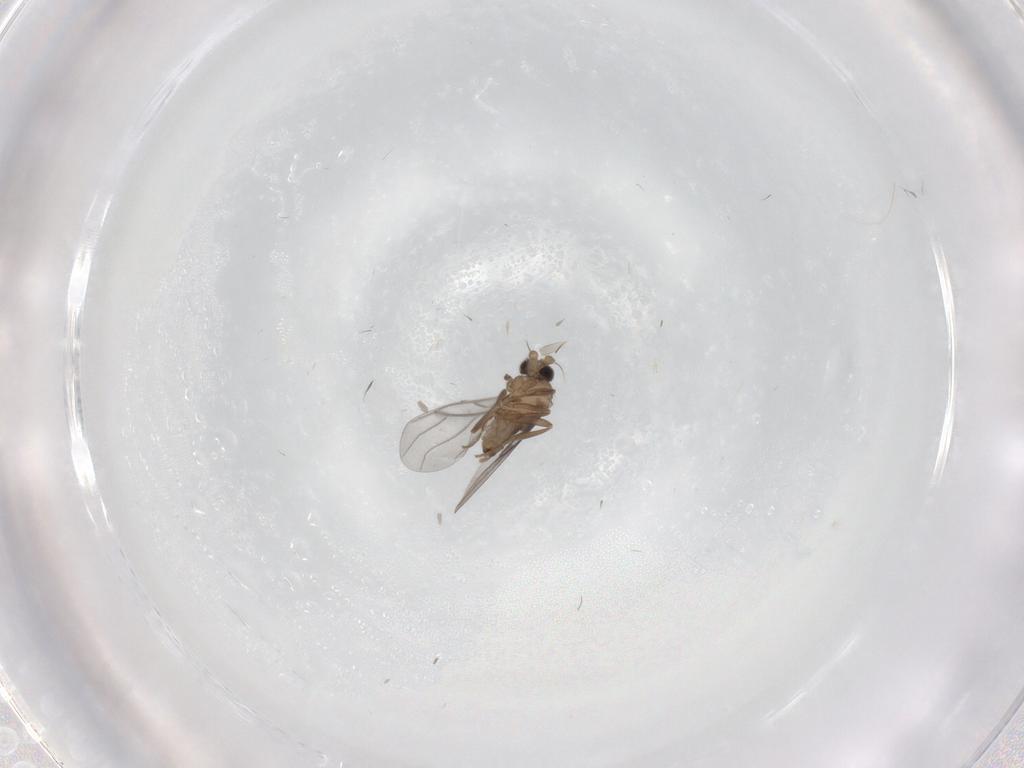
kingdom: Animalia
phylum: Arthropoda
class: Insecta
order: Diptera
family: Ceratopogonidae
